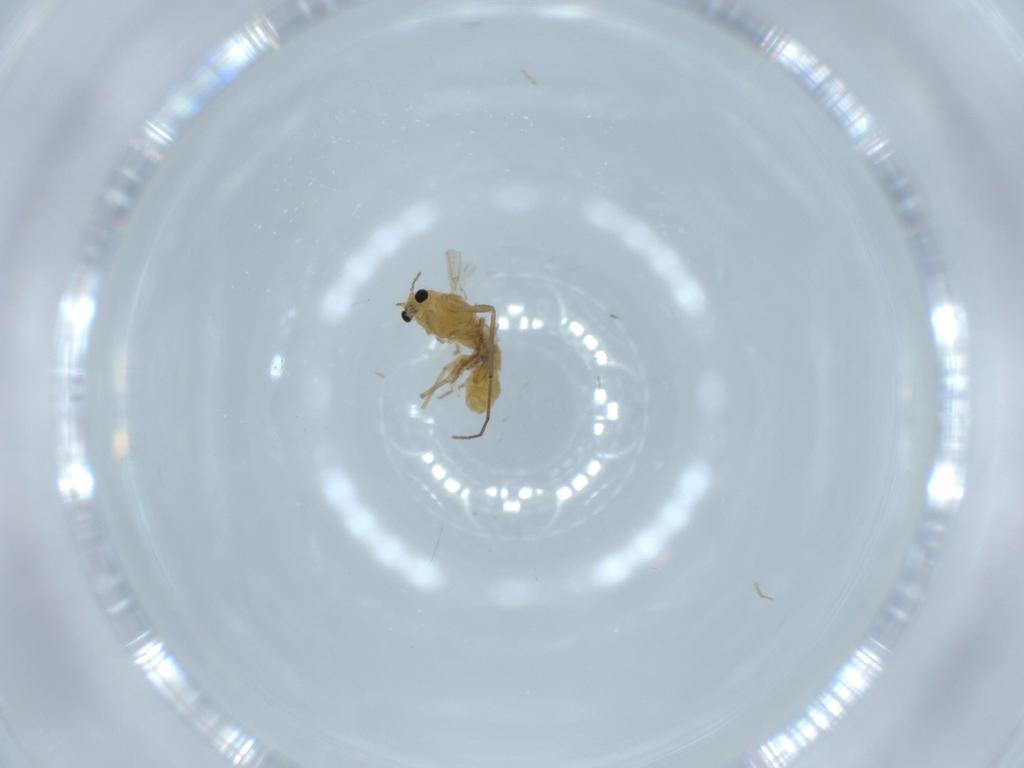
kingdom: Animalia
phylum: Arthropoda
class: Insecta
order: Diptera
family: Chironomidae
